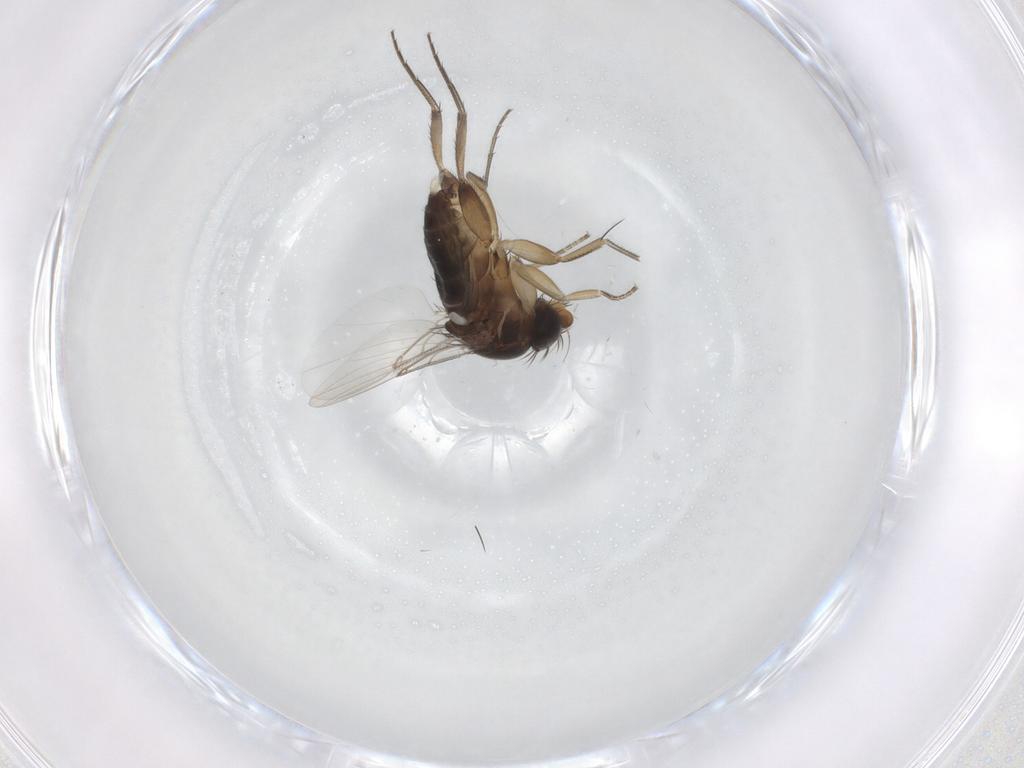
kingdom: Animalia
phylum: Arthropoda
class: Insecta
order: Diptera
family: Phoridae
